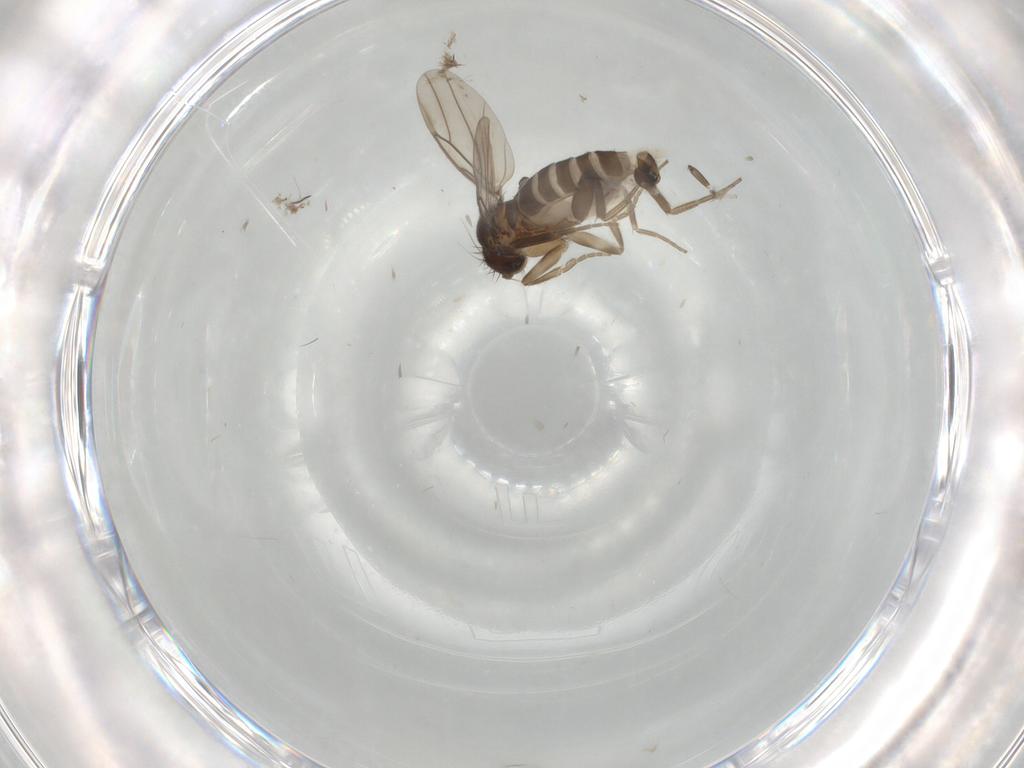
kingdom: Animalia
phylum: Arthropoda
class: Insecta
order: Diptera
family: Phoridae
